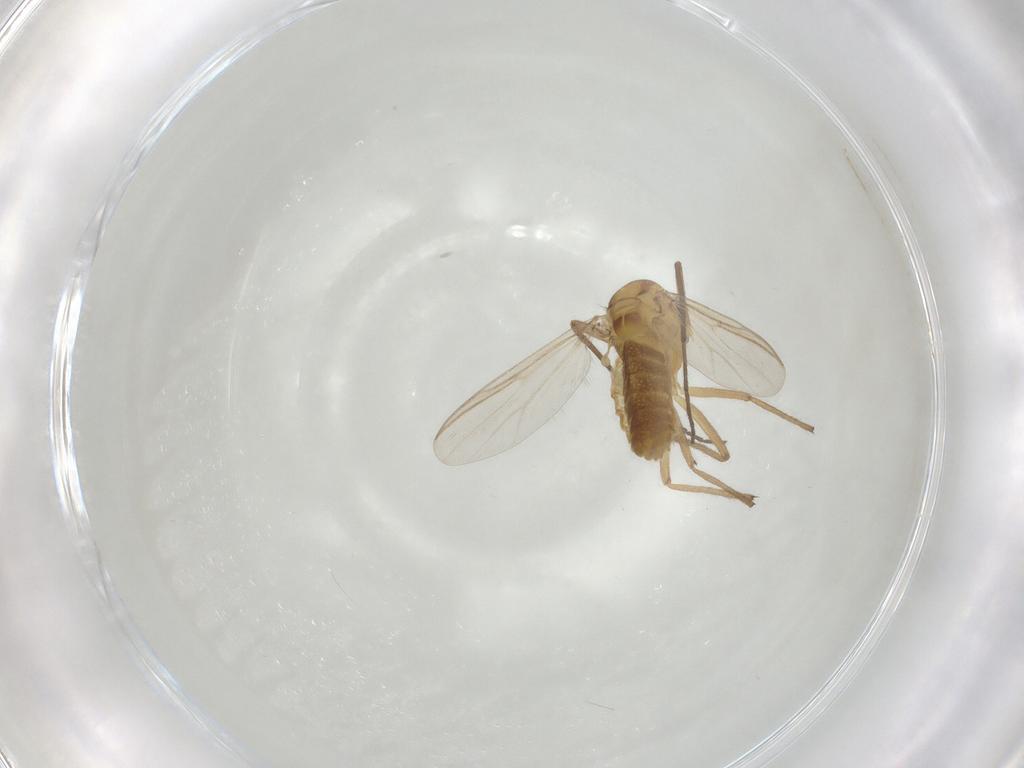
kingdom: Animalia
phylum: Arthropoda
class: Insecta
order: Diptera
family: Chironomidae
